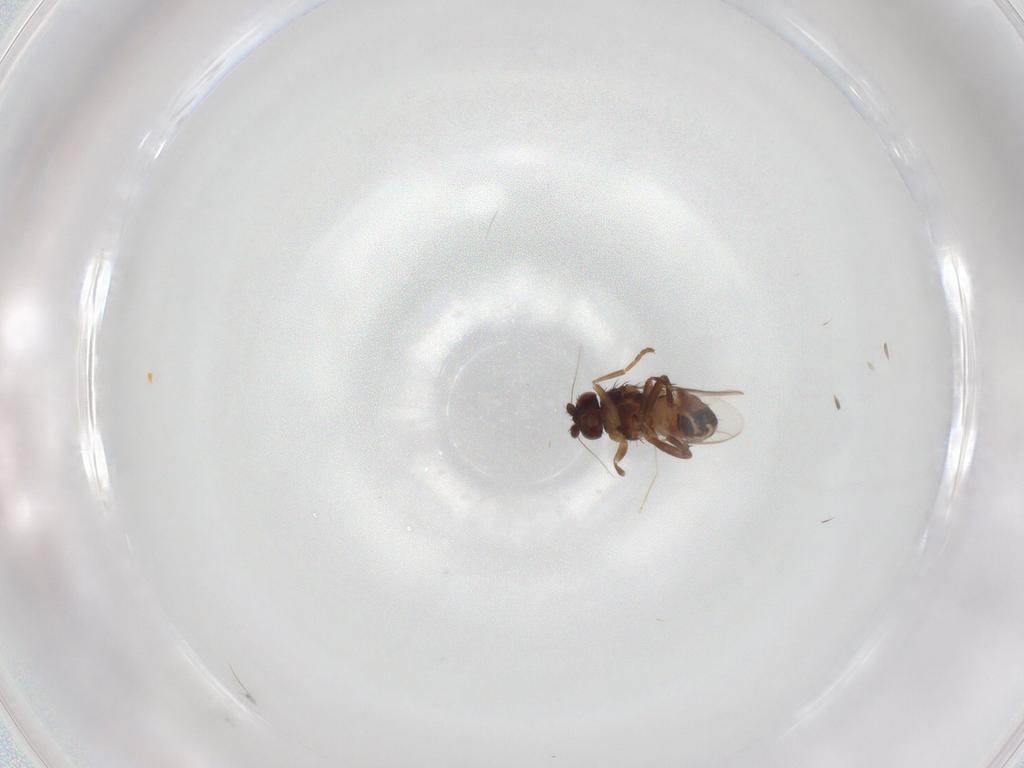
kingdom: Animalia
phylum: Arthropoda
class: Insecta
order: Diptera
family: Sphaeroceridae
